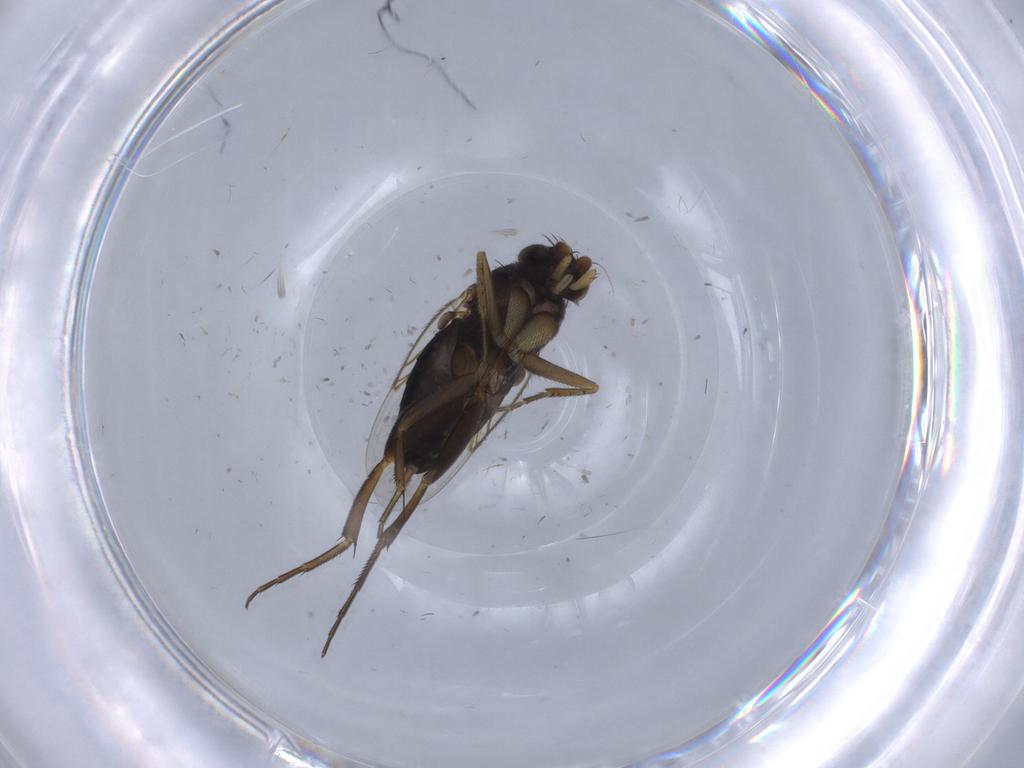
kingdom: Animalia
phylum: Arthropoda
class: Insecta
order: Diptera
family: Phoridae
